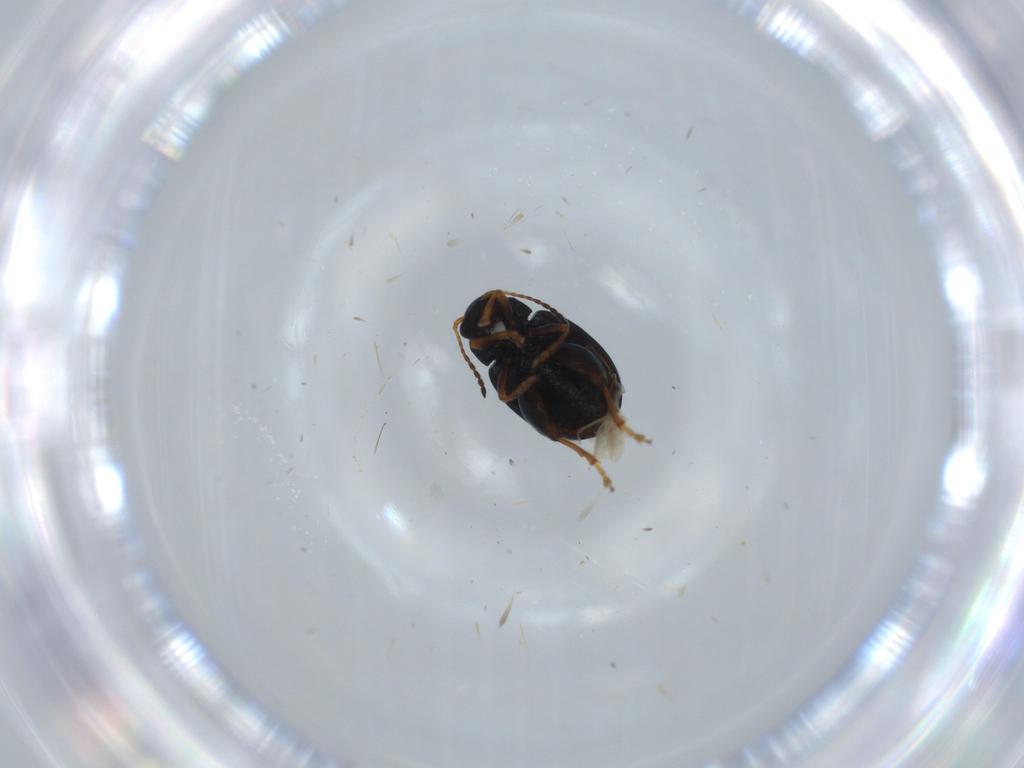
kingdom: Animalia
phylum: Arthropoda
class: Insecta
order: Coleoptera
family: Chrysomelidae
